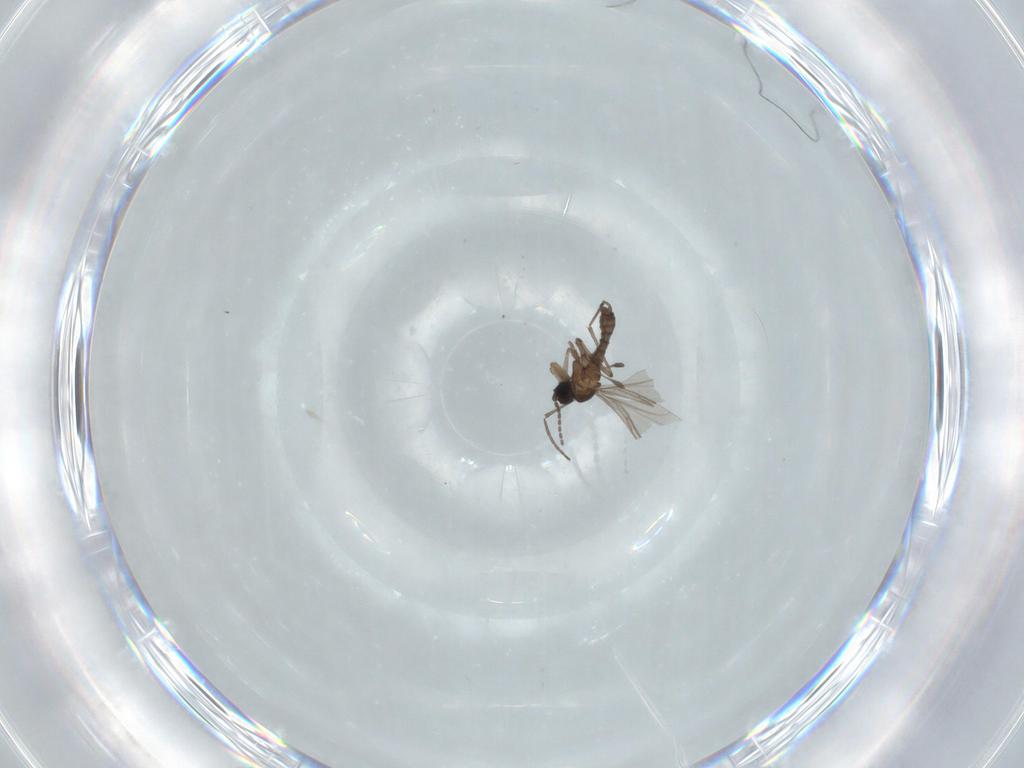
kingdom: Animalia
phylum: Arthropoda
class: Insecta
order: Diptera
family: Sciaridae
